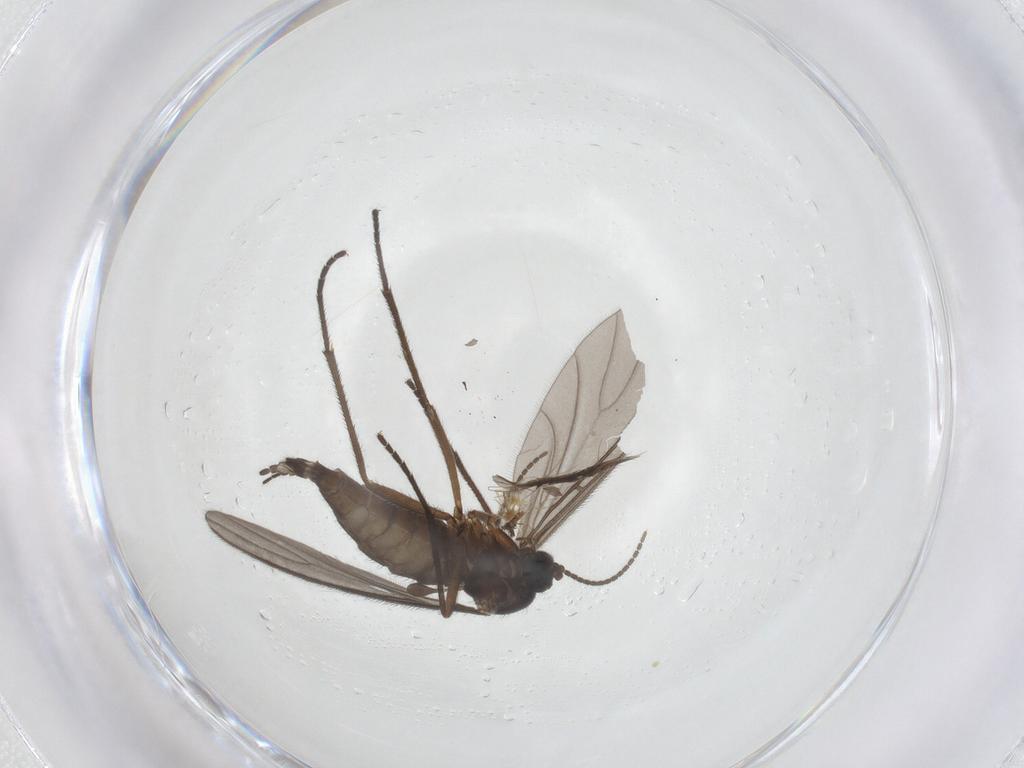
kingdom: Animalia
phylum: Arthropoda
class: Insecta
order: Diptera
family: Sciaridae
